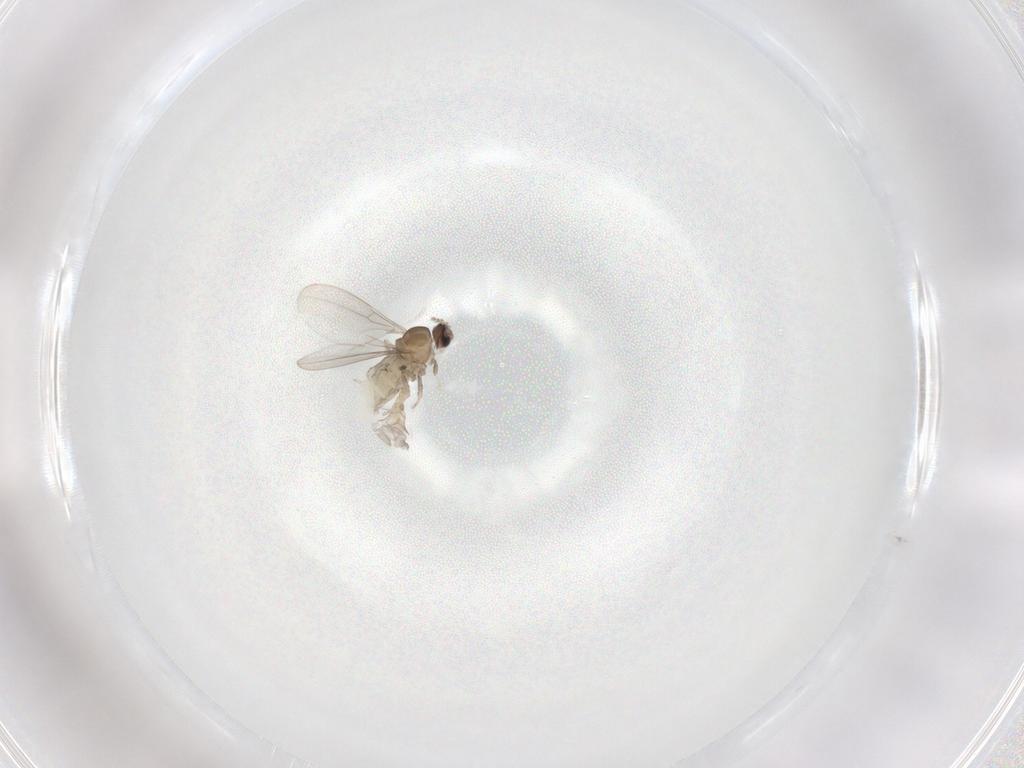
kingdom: Animalia
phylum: Arthropoda
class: Insecta
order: Diptera
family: Cecidomyiidae
